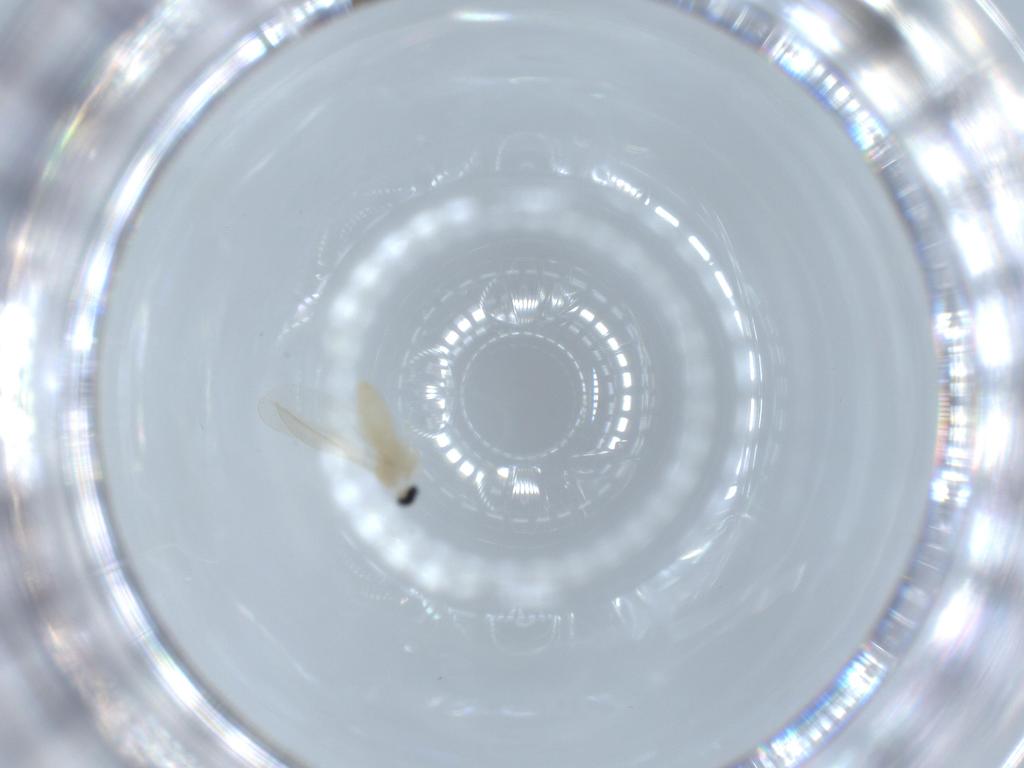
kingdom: Animalia
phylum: Arthropoda
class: Insecta
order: Diptera
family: Cecidomyiidae
